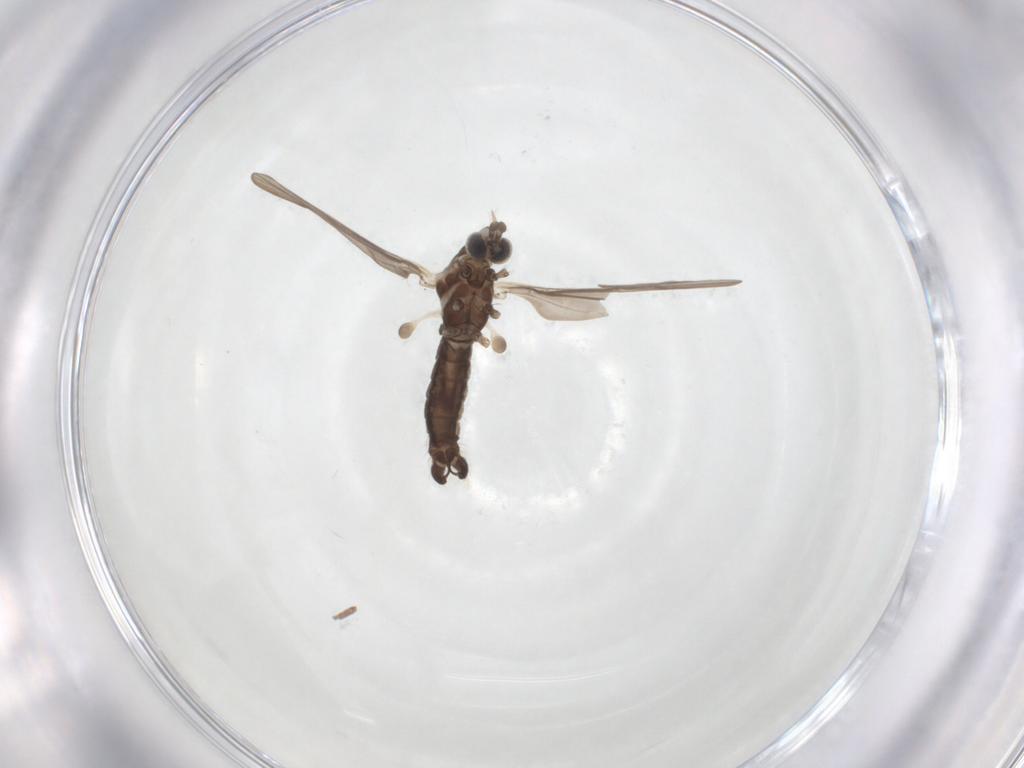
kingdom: Animalia
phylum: Arthropoda
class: Insecta
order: Diptera
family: Limoniidae
